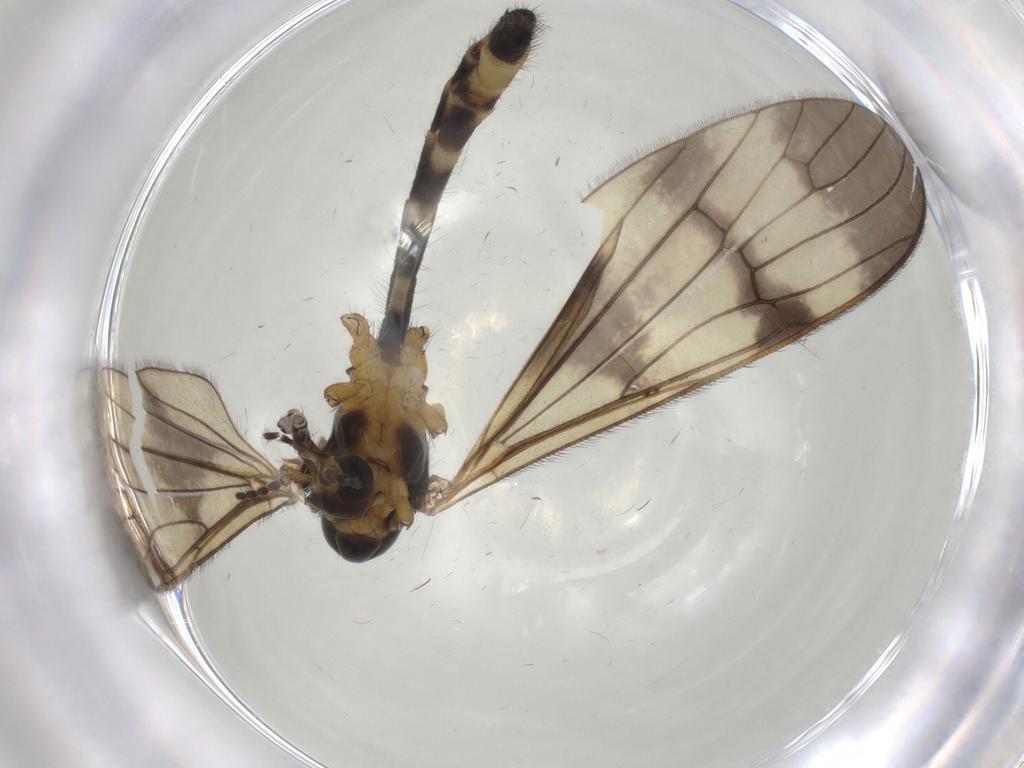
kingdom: Animalia
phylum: Arthropoda
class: Insecta
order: Diptera
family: Limoniidae
